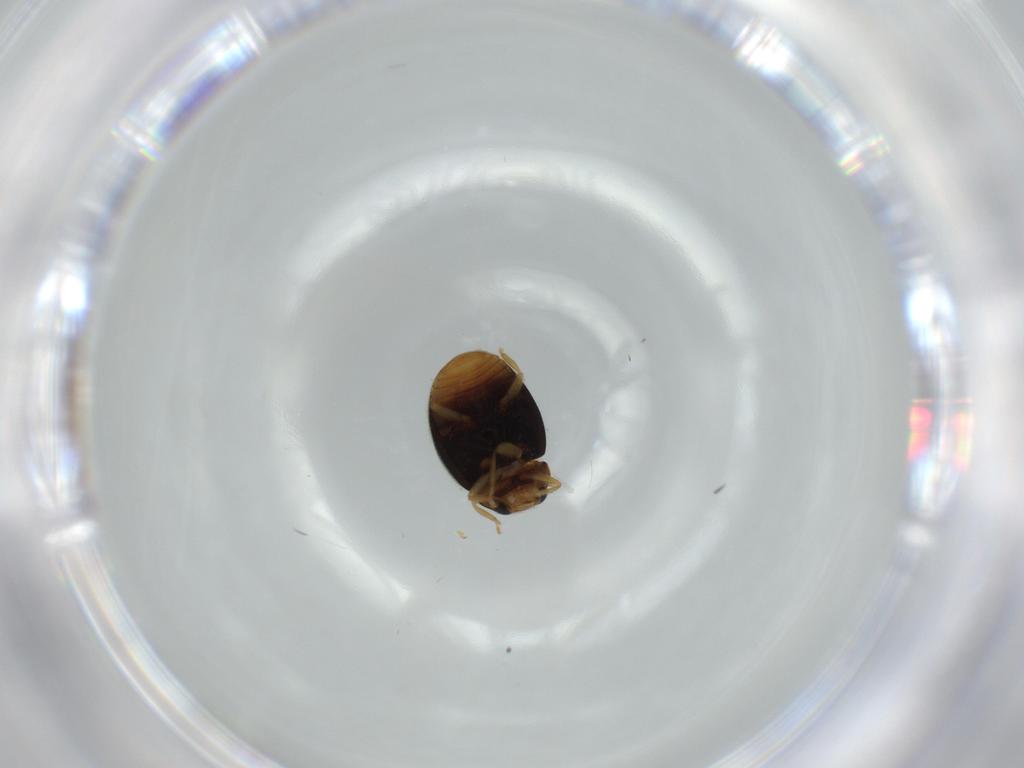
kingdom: Animalia
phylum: Arthropoda
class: Insecta
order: Coleoptera
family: Coccinellidae
